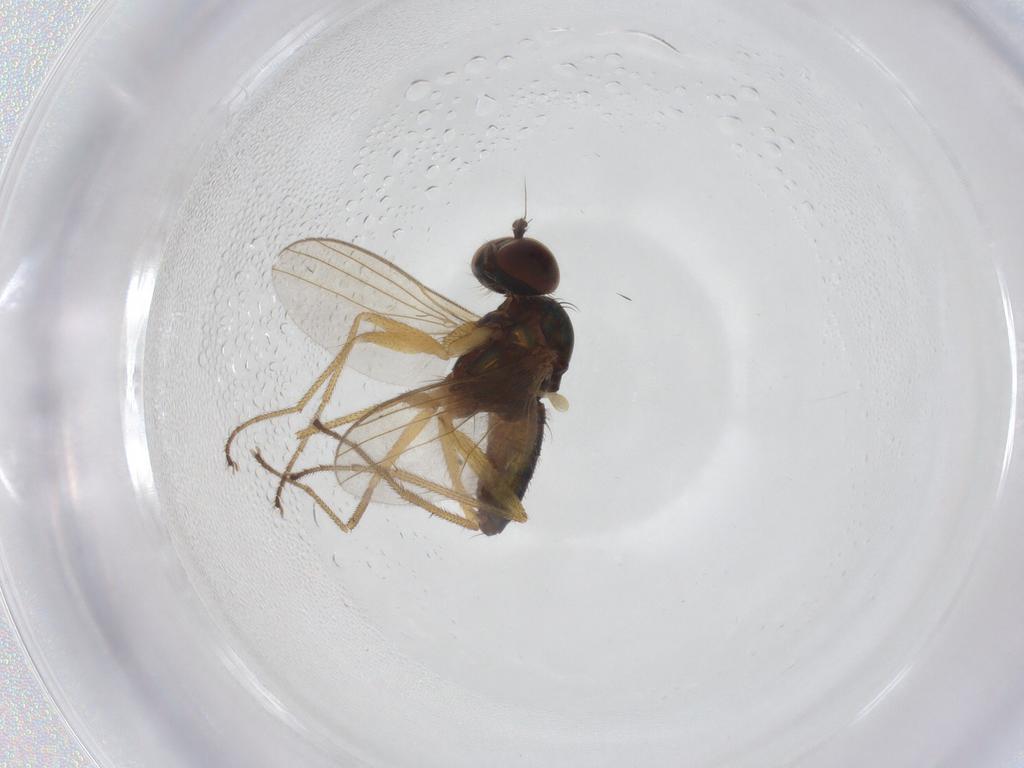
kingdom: Animalia
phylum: Arthropoda
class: Insecta
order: Diptera
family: Dolichopodidae
